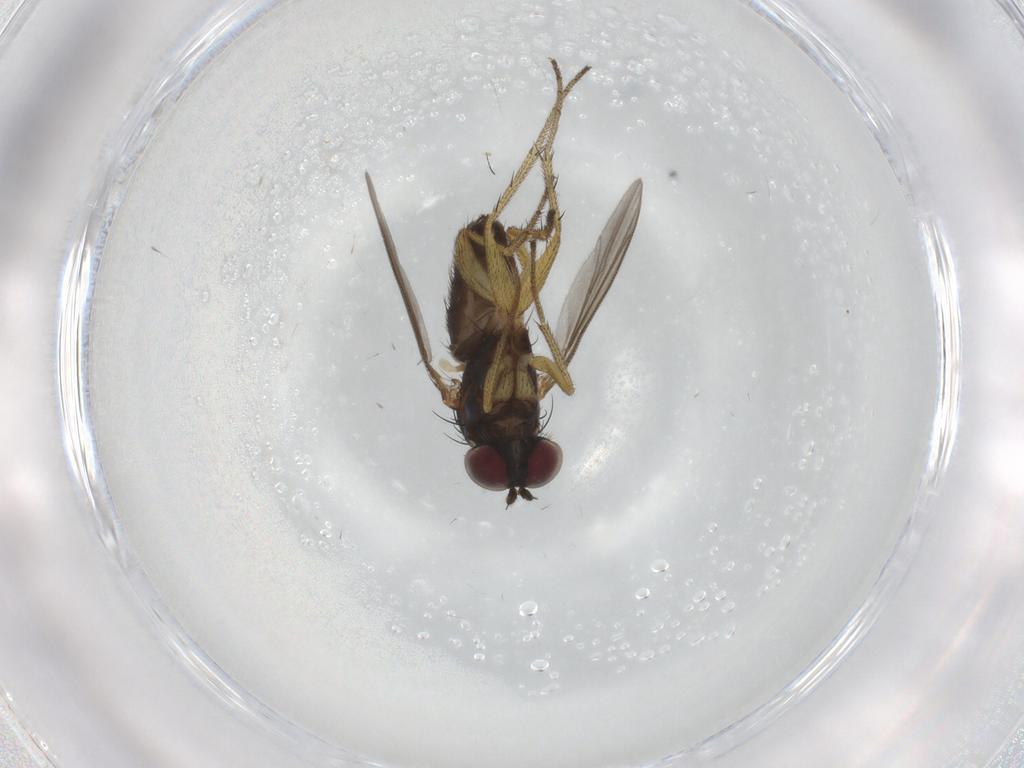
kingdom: Animalia
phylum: Arthropoda
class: Insecta
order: Diptera
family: Dolichopodidae
